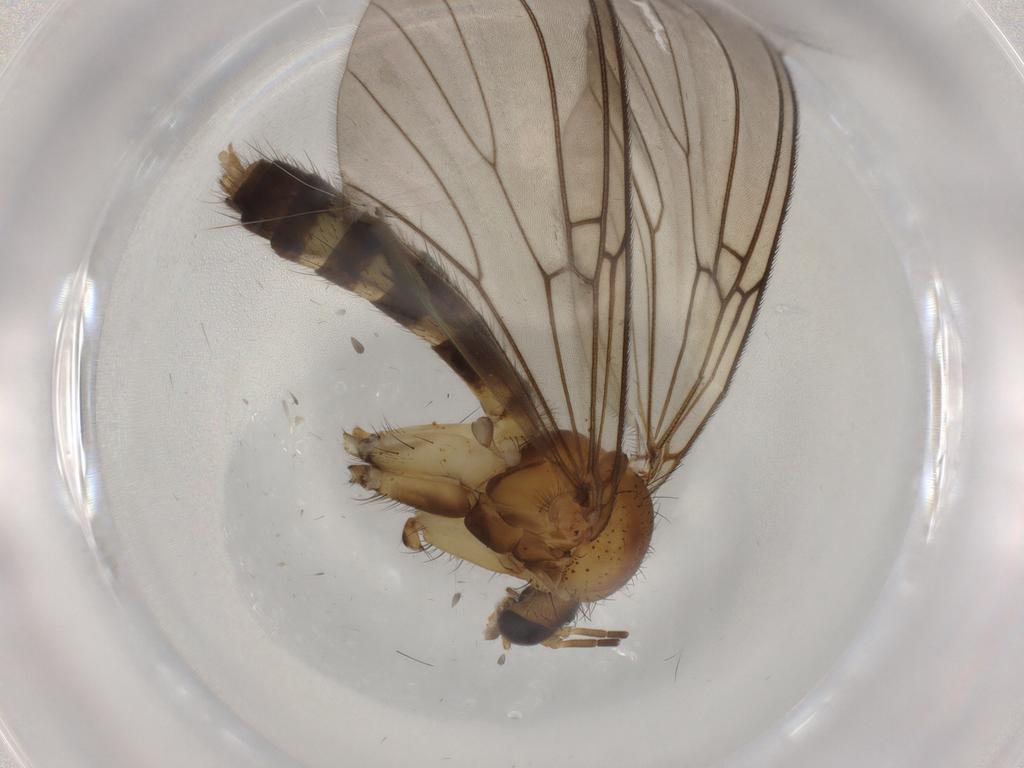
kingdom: Animalia
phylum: Arthropoda
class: Insecta
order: Diptera
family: Mycetophilidae
